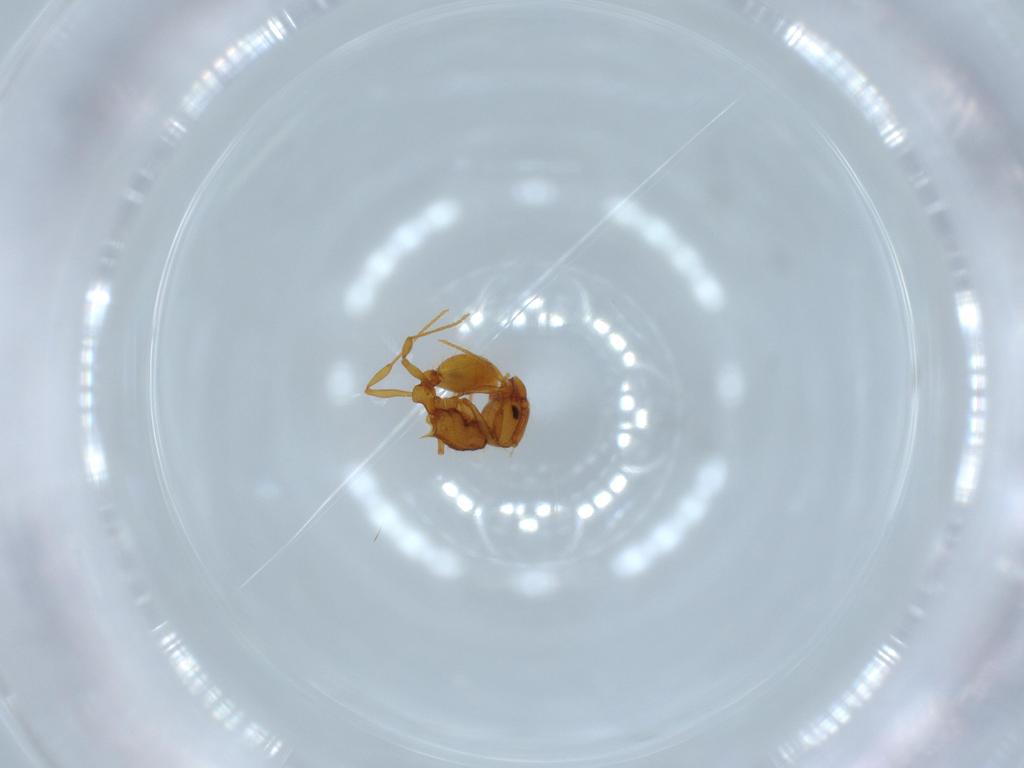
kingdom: Animalia
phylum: Arthropoda
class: Insecta
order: Hymenoptera
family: Formicidae
